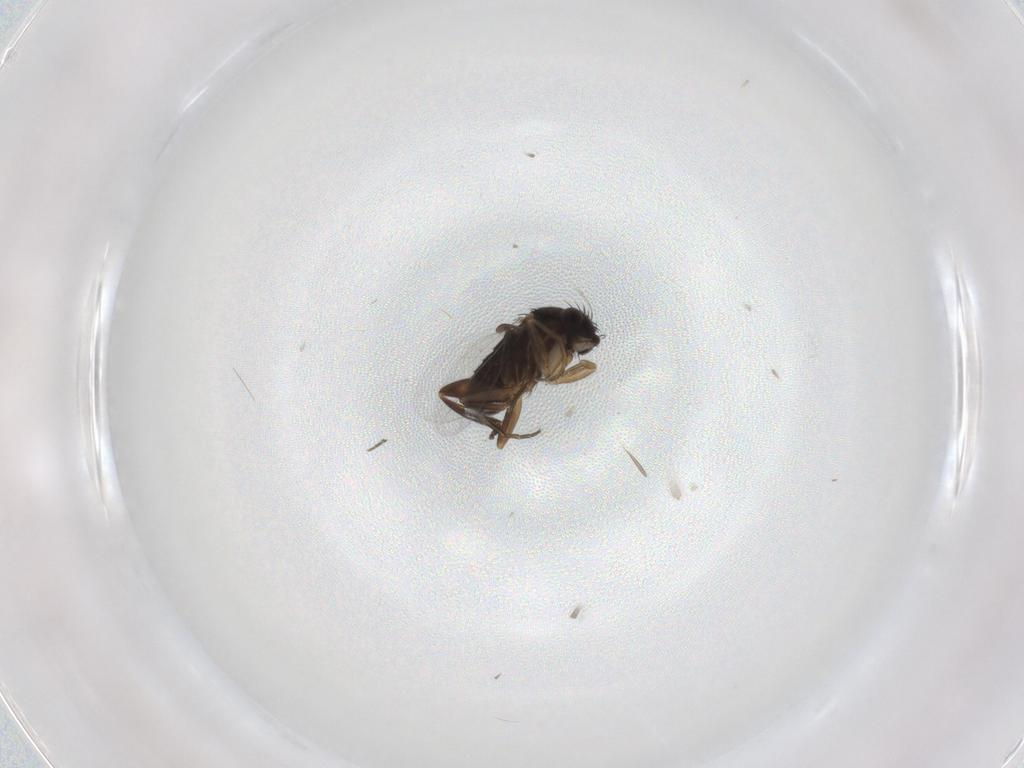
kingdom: Animalia
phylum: Arthropoda
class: Insecta
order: Diptera
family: Phoridae
